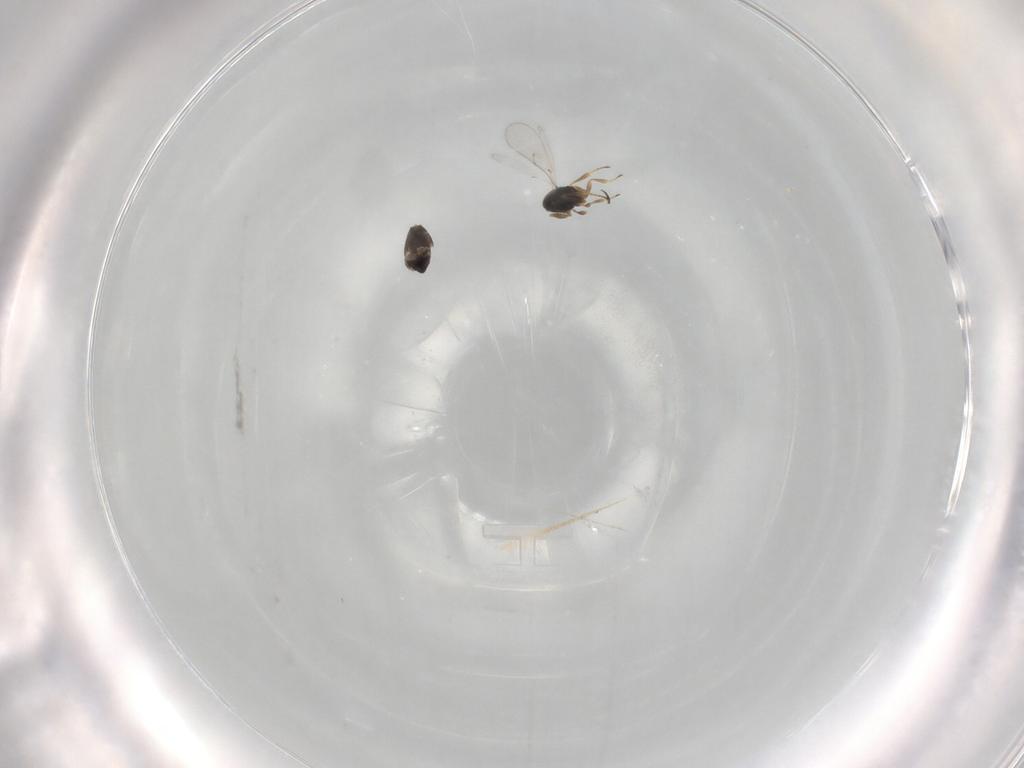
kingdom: Animalia
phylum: Arthropoda
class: Insecta
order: Hymenoptera
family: Scelionidae
